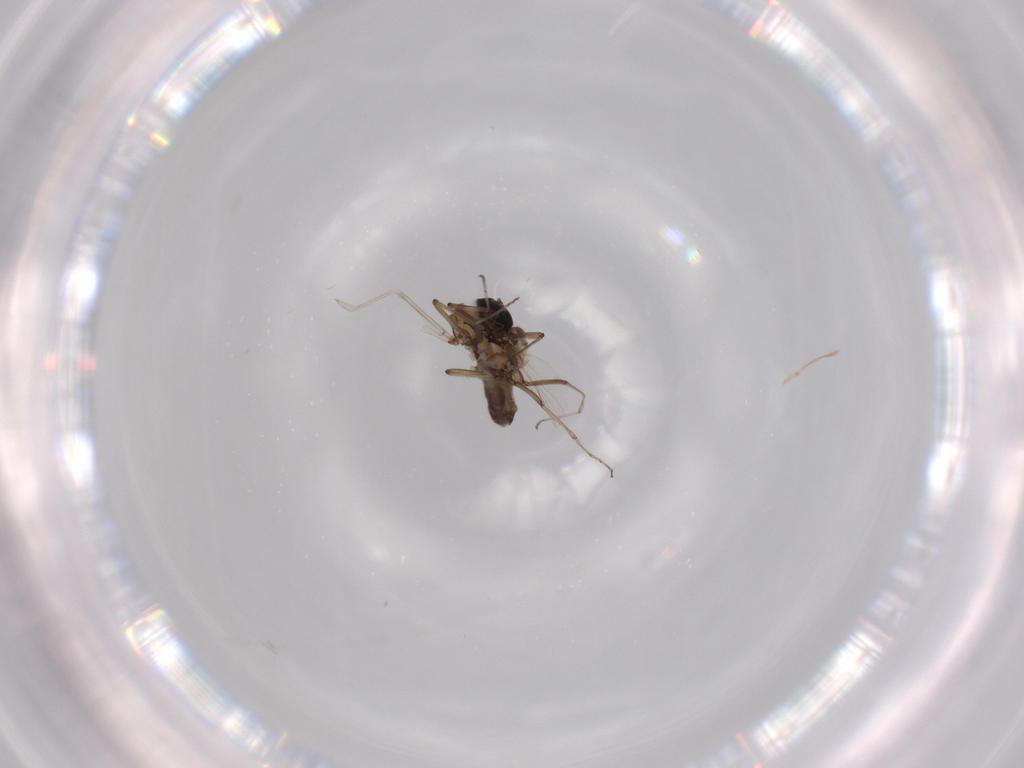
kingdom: Animalia
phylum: Arthropoda
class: Insecta
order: Diptera
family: Ceratopogonidae
